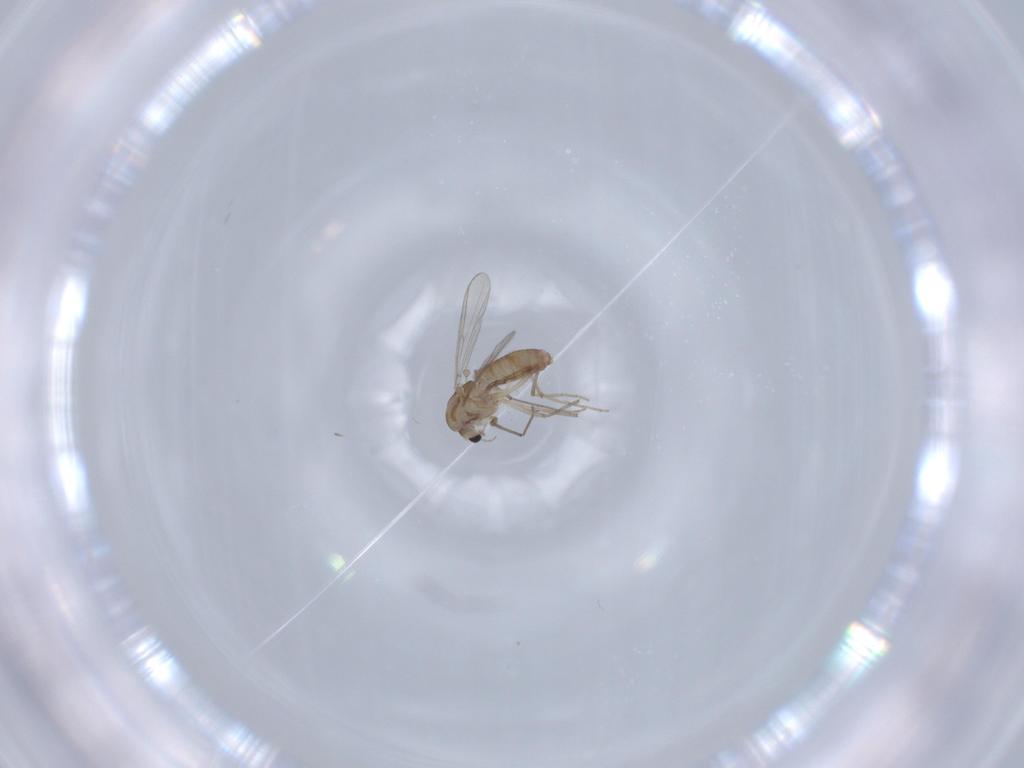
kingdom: Animalia
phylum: Arthropoda
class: Insecta
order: Diptera
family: Chironomidae
